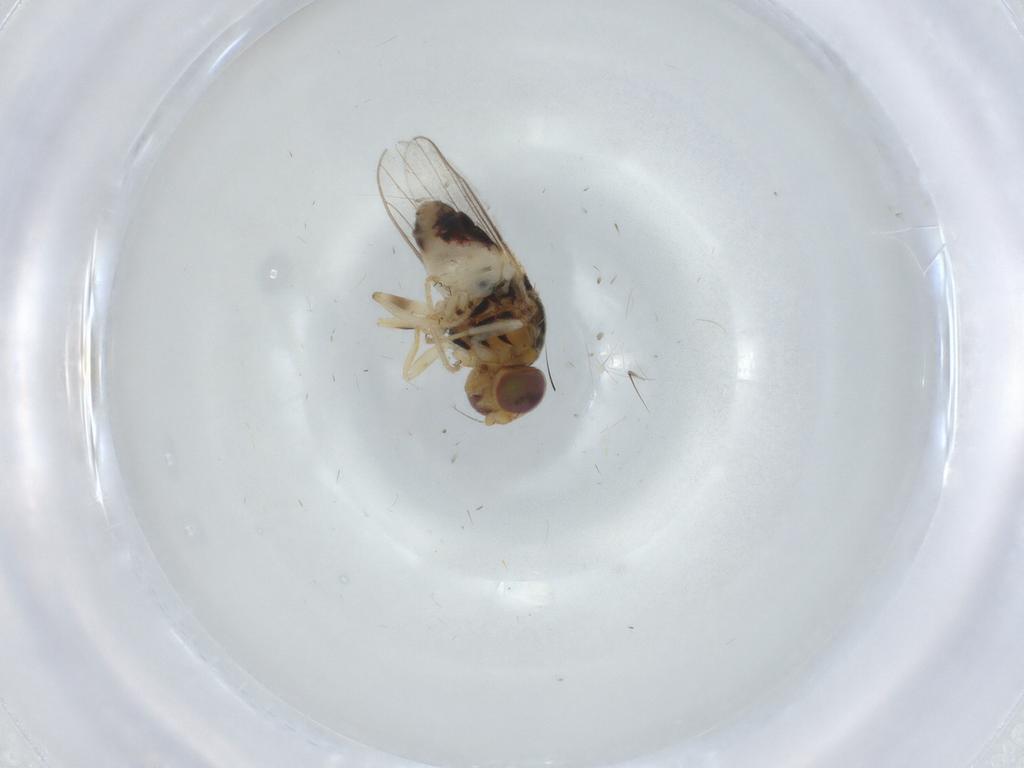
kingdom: Animalia
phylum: Arthropoda
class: Insecta
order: Diptera
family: Chloropidae
